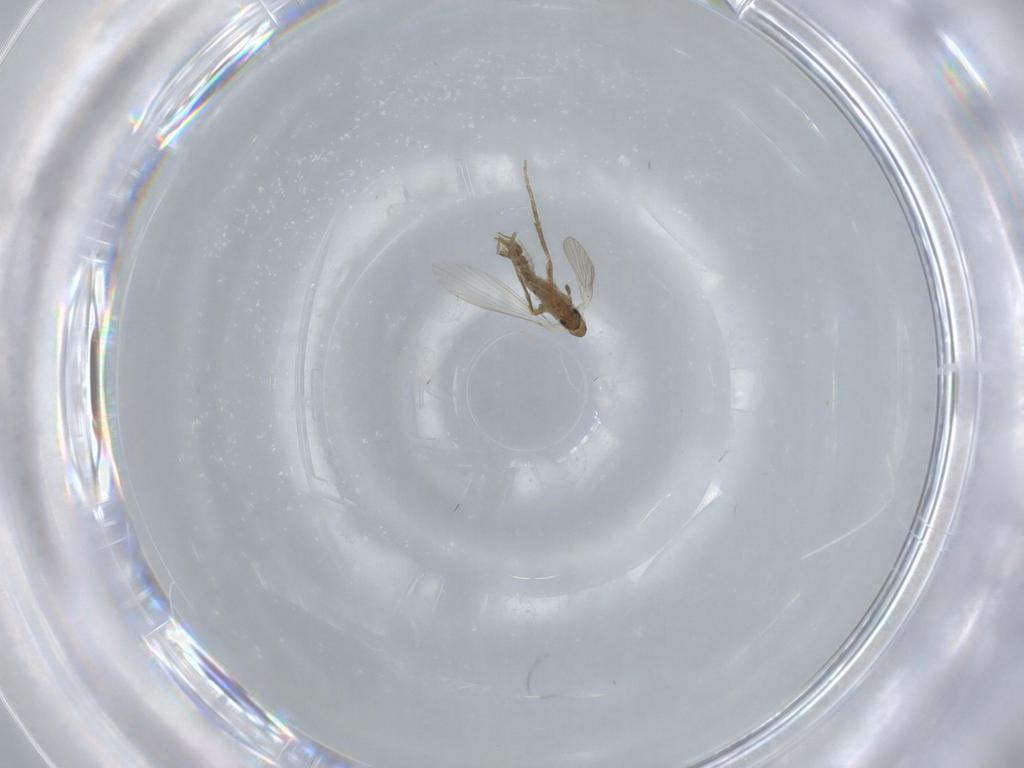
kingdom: Animalia
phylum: Arthropoda
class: Insecta
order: Diptera
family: Psychodidae
